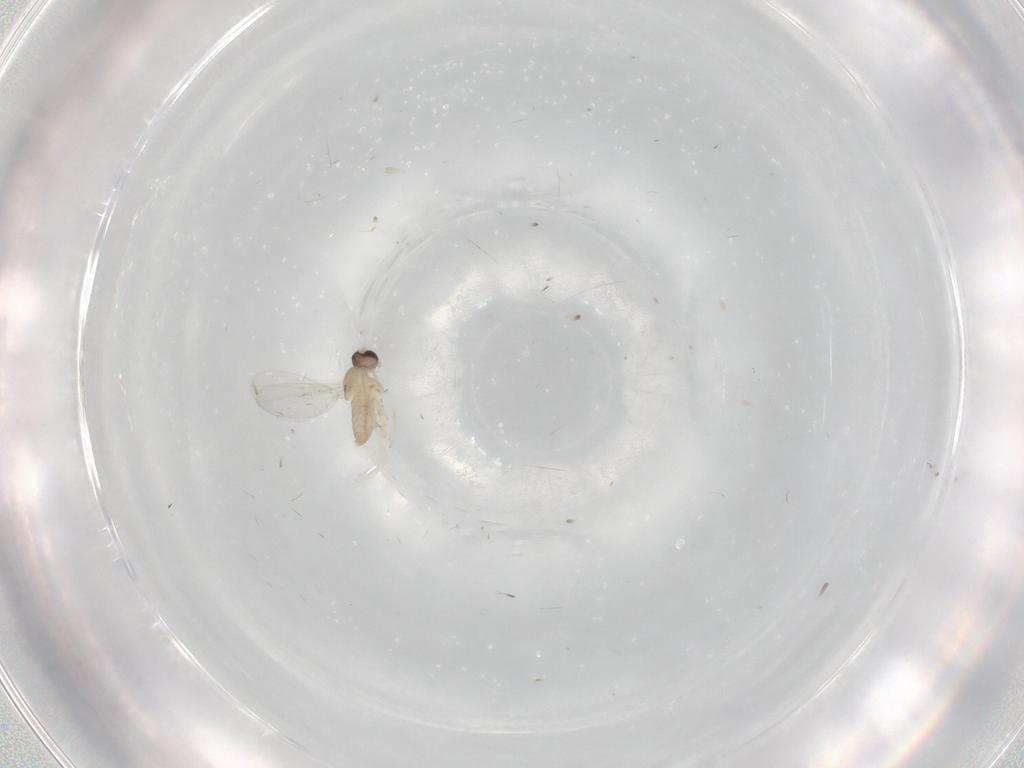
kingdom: Animalia
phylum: Arthropoda
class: Insecta
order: Diptera
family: Cecidomyiidae
